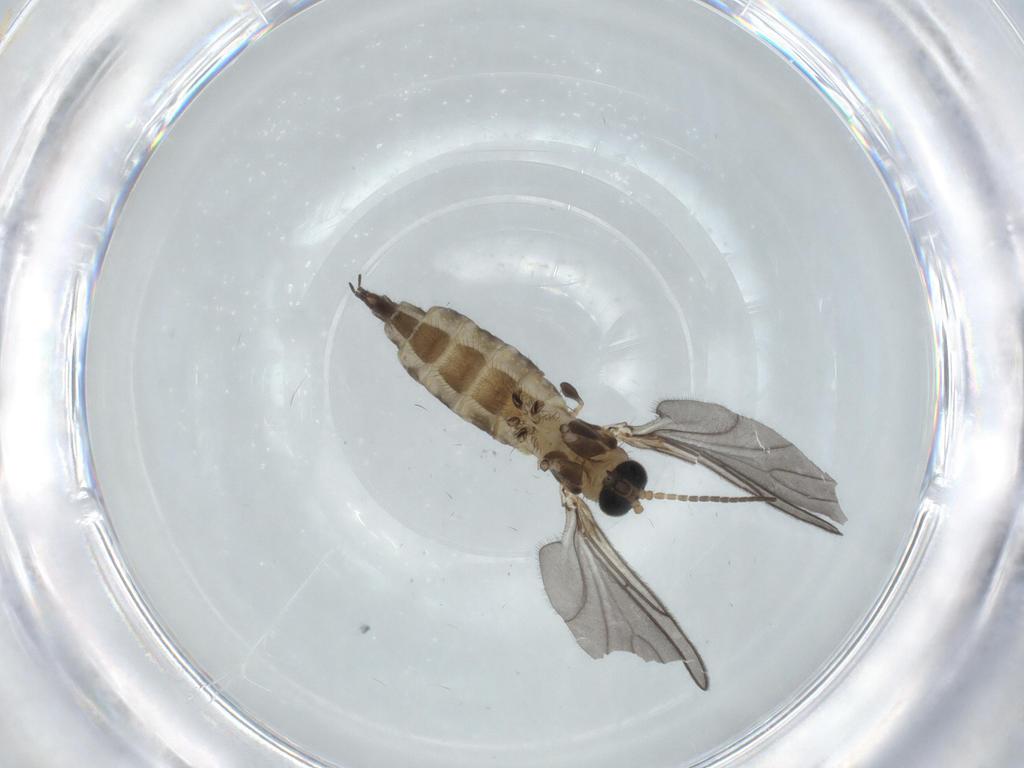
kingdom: Animalia
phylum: Arthropoda
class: Insecta
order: Diptera
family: Sciaridae
